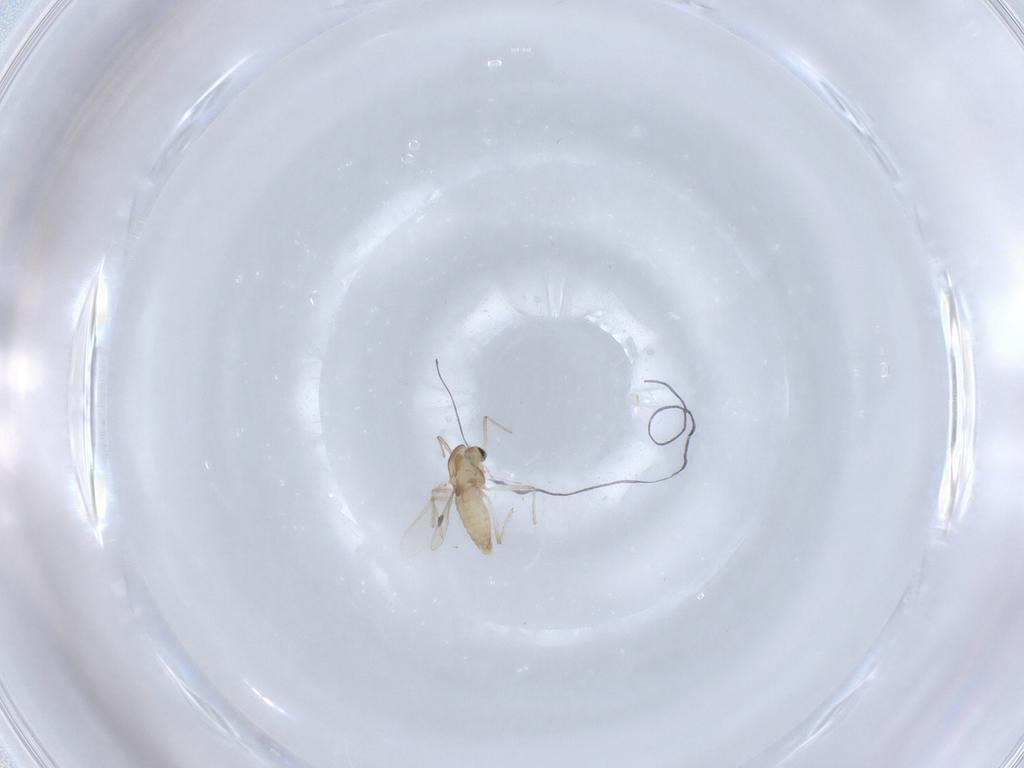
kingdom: Animalia
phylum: Arthropoda
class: Insecta
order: Diptera
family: Chironomidae
